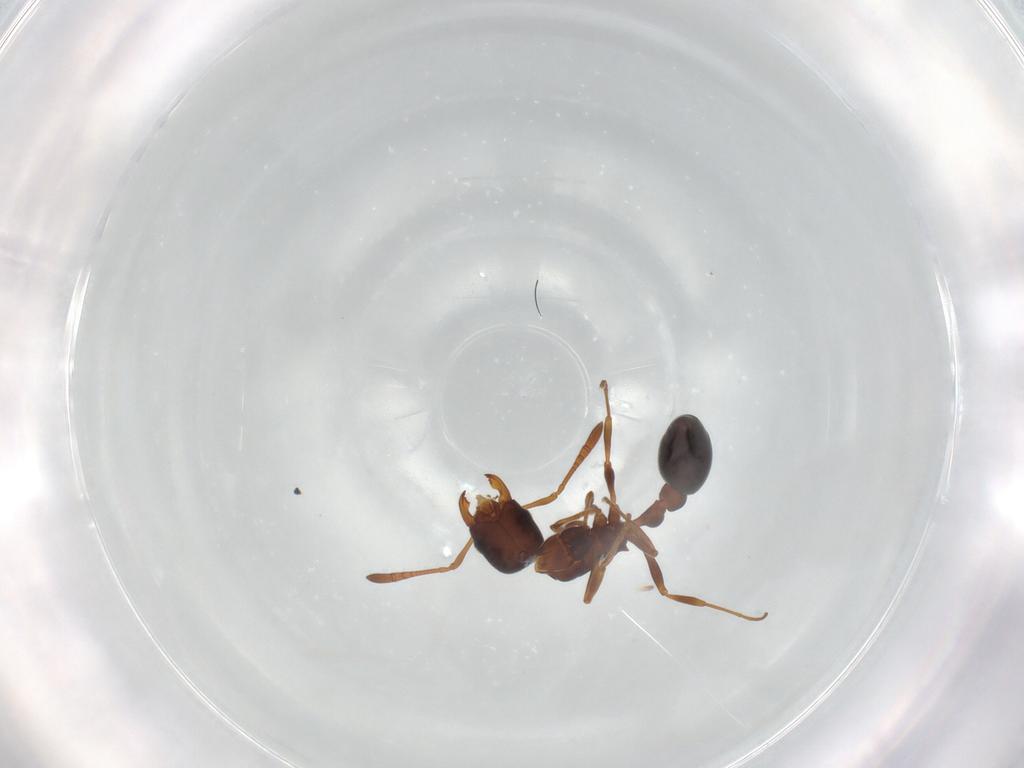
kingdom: Animalia
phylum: Arthropoda
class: Insecta
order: Hymenoptera
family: Formicidae
